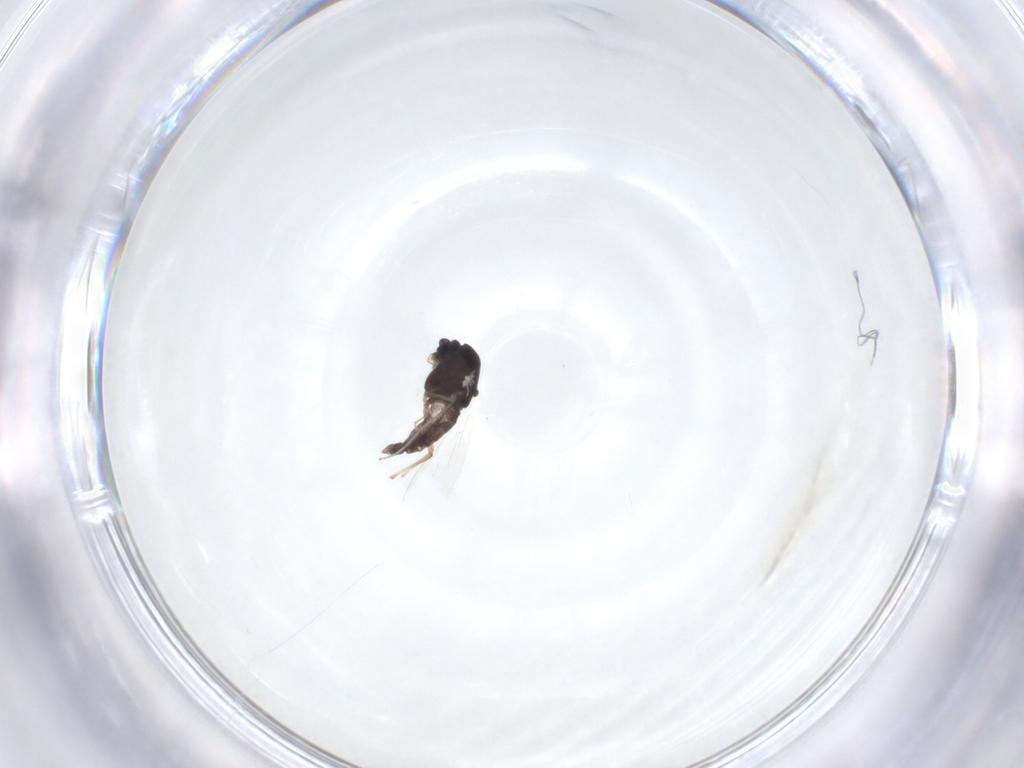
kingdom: Animalia
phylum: Arthropoda
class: Insecta
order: Diptera
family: Chironomidae
